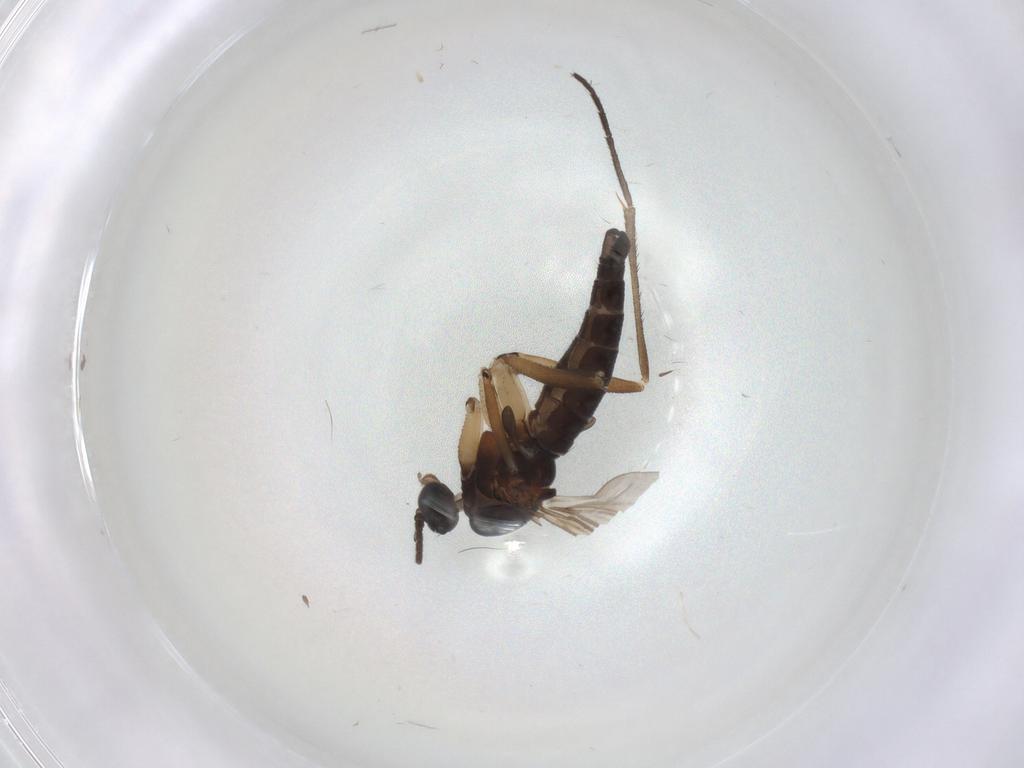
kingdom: Animalia
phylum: Arthropoda
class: Insecta
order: Diptera
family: Sciaridae
